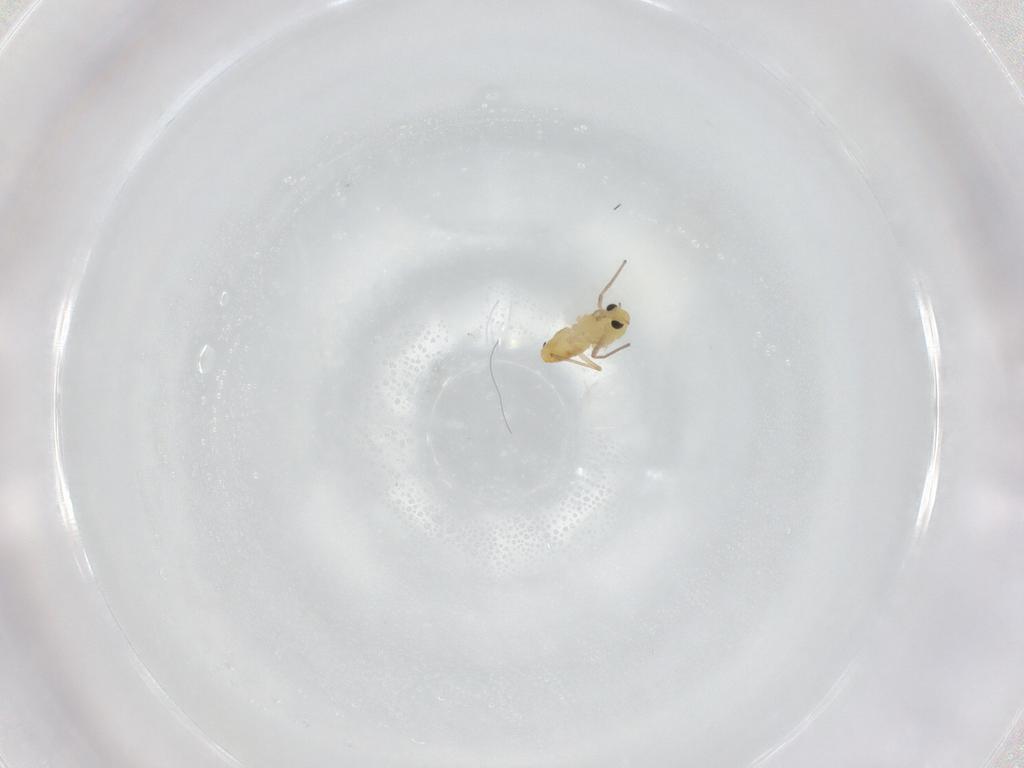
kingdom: Animalia
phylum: Arthropoda
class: Insecta
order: Diptera
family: Chironomidae
